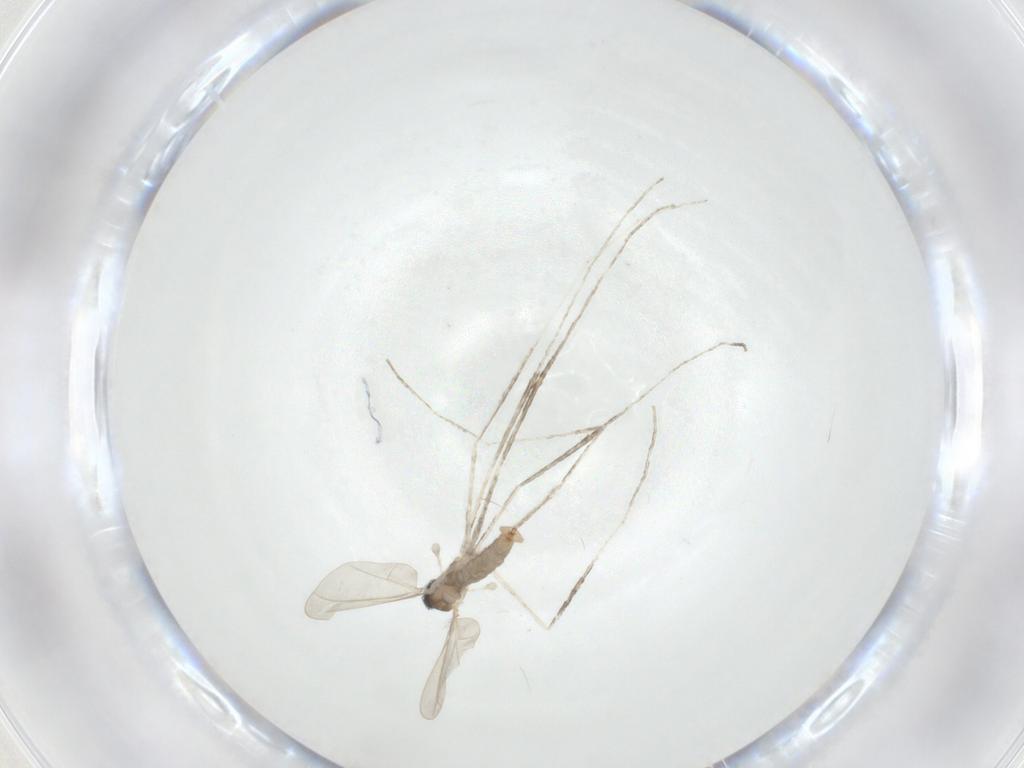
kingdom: Animalia
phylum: Arthropoda
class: Insecta
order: Diptera
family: Cecidomyiidae
